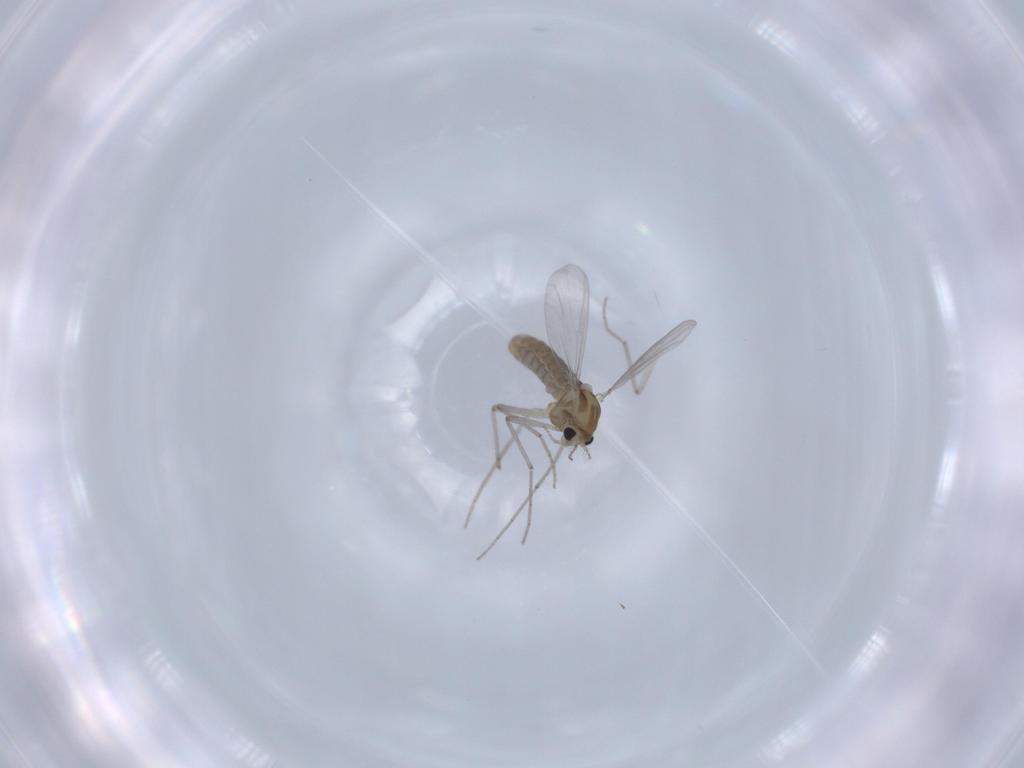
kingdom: Animalia
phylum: Arthropoda
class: Insecta
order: Diptera
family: Chironomidae
